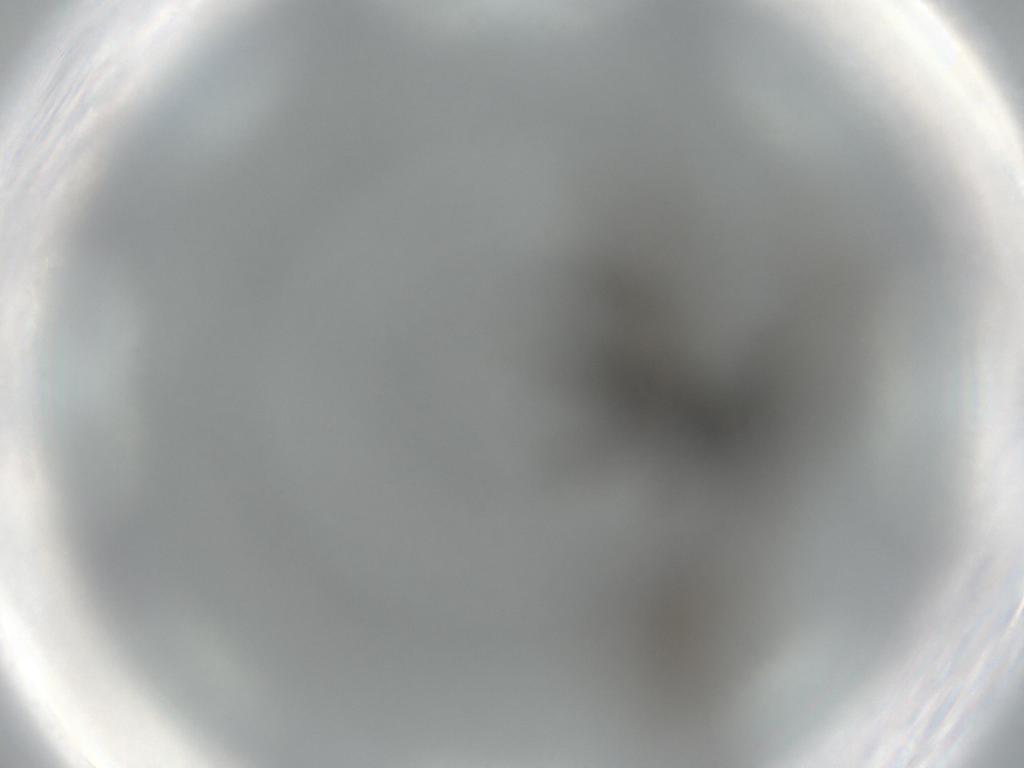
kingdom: Animalia
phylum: Arthropoda
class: Insecta
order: Diptera
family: Sciaridae
